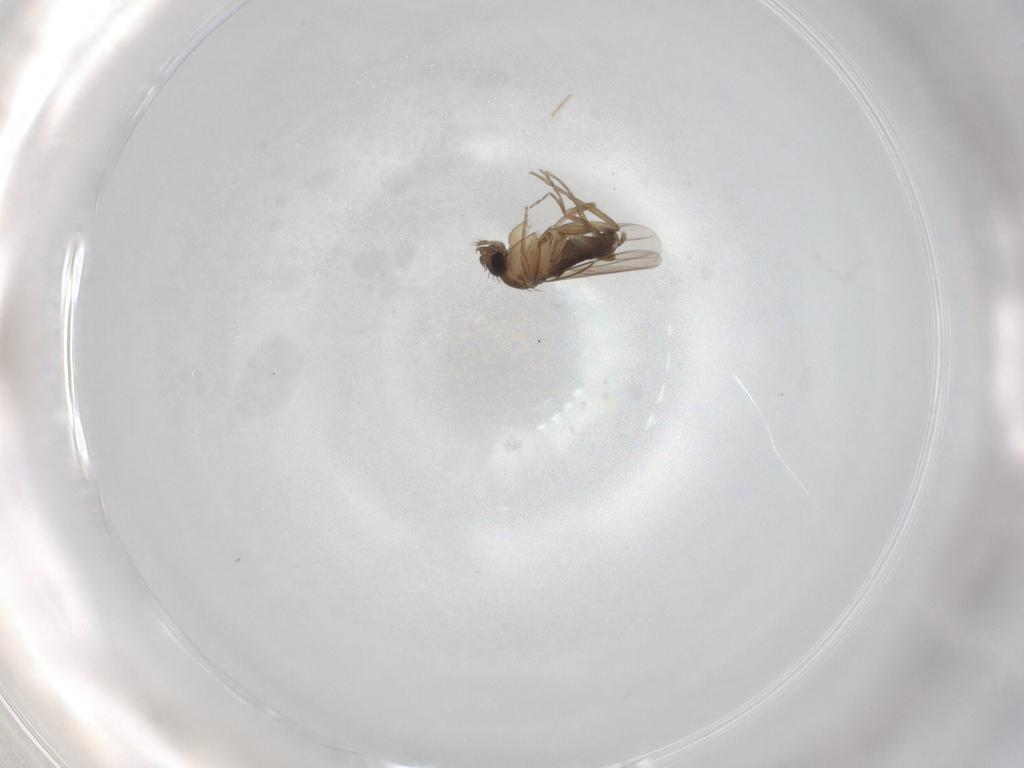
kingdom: Animalia
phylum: Arthropoda
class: Insecta
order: Diptera
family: Phoridae
